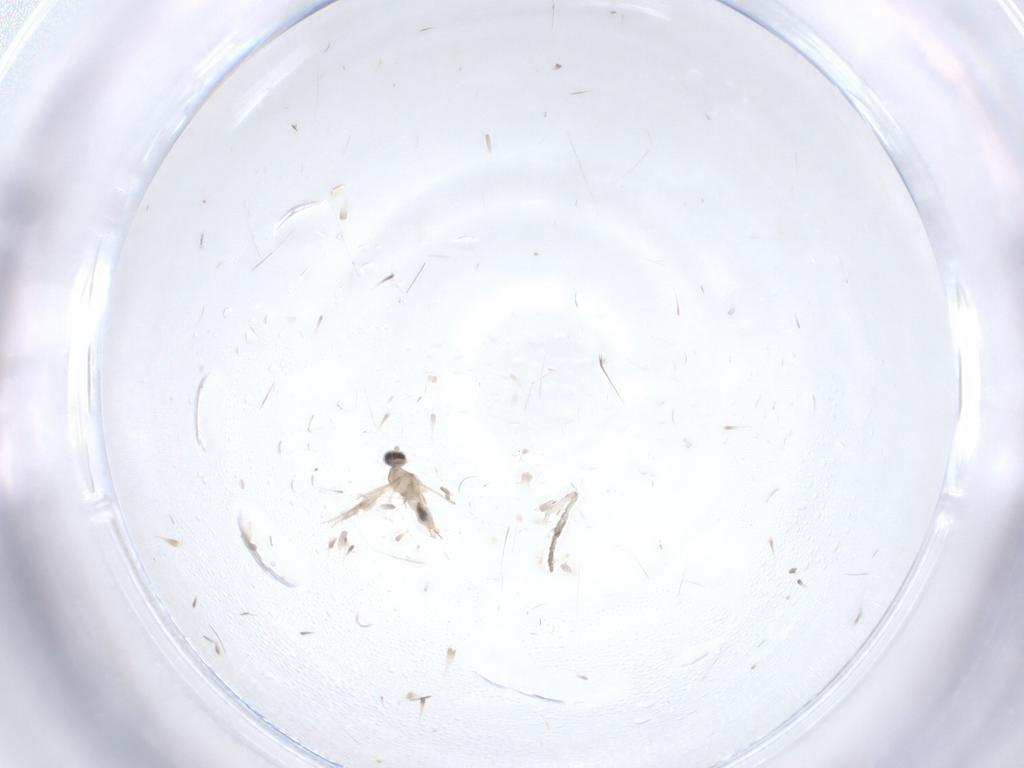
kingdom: Animalia
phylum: Arthropoda
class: Insecta
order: Diptera
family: Cecidomyiidae
